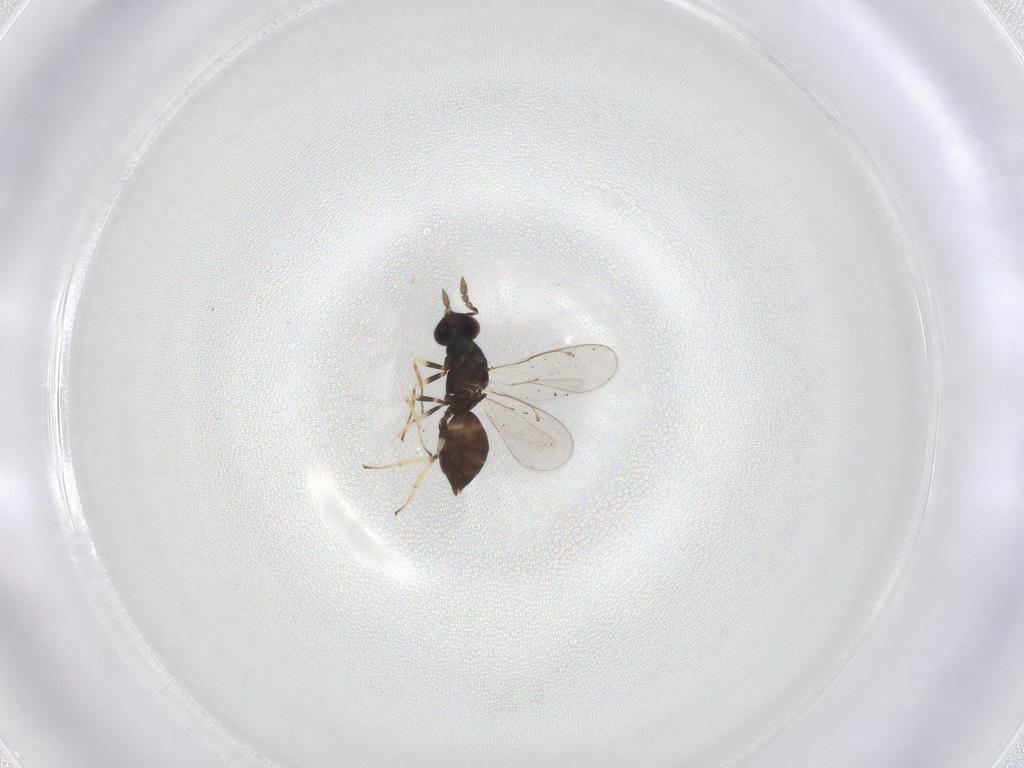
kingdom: Animalia
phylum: Arthropoda
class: Insecta
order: Hymenoptera
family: Eulophidae
